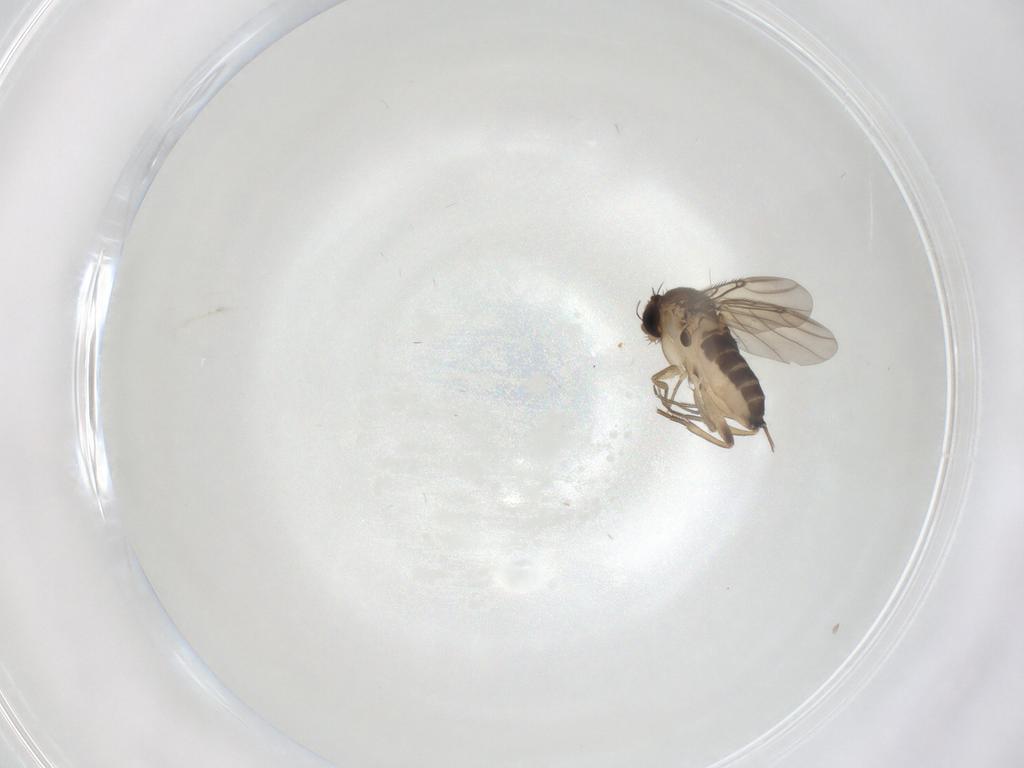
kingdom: Animalia
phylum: Arthropoda
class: Insecta
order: Diptera
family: Phoridae
